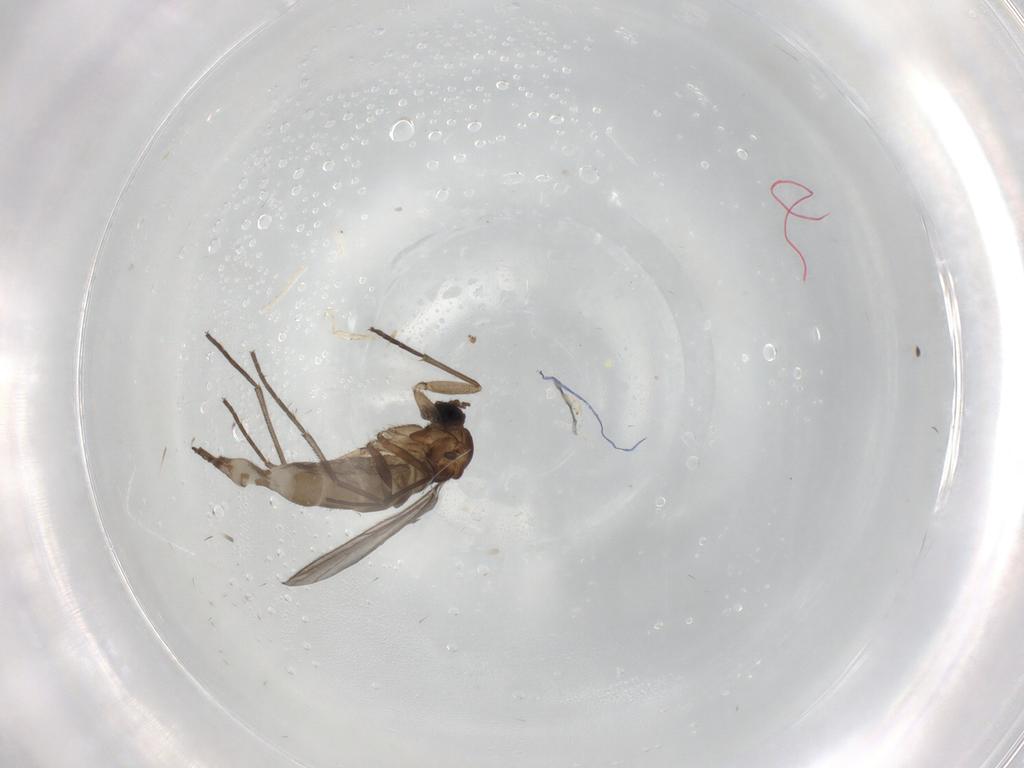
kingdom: Animalia
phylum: Arthropoda
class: Insecta
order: Diptera
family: Sciaridae
